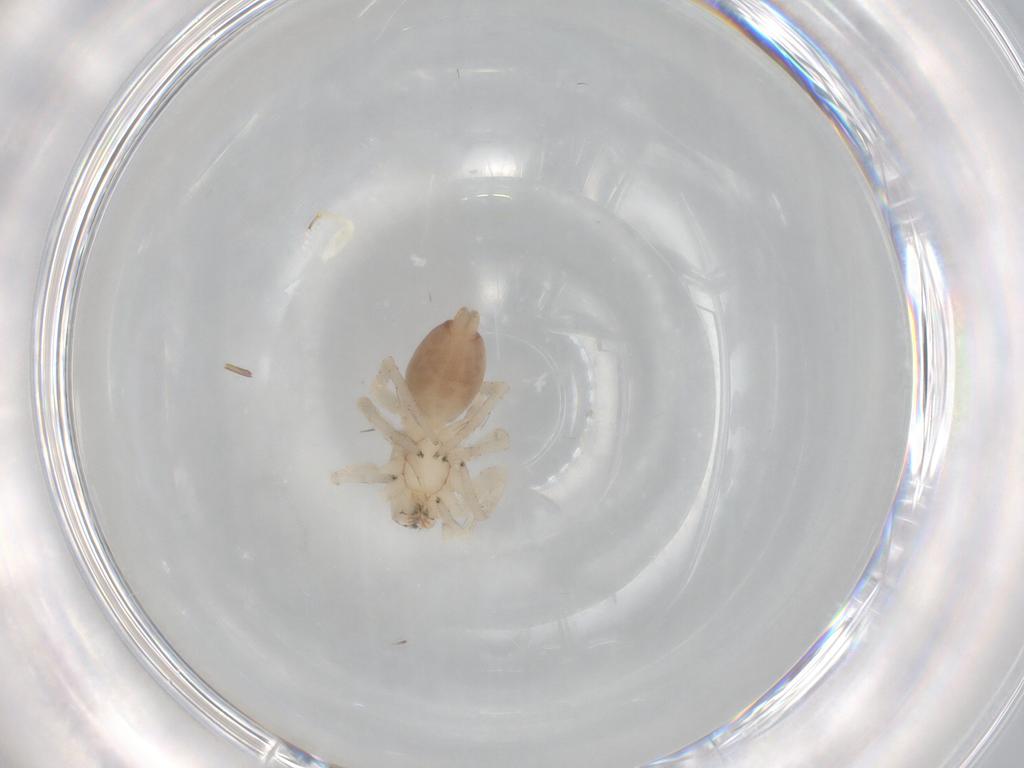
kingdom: Animalia
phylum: Arthropoda
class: Arachnida
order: Araneae
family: Clubionidae
